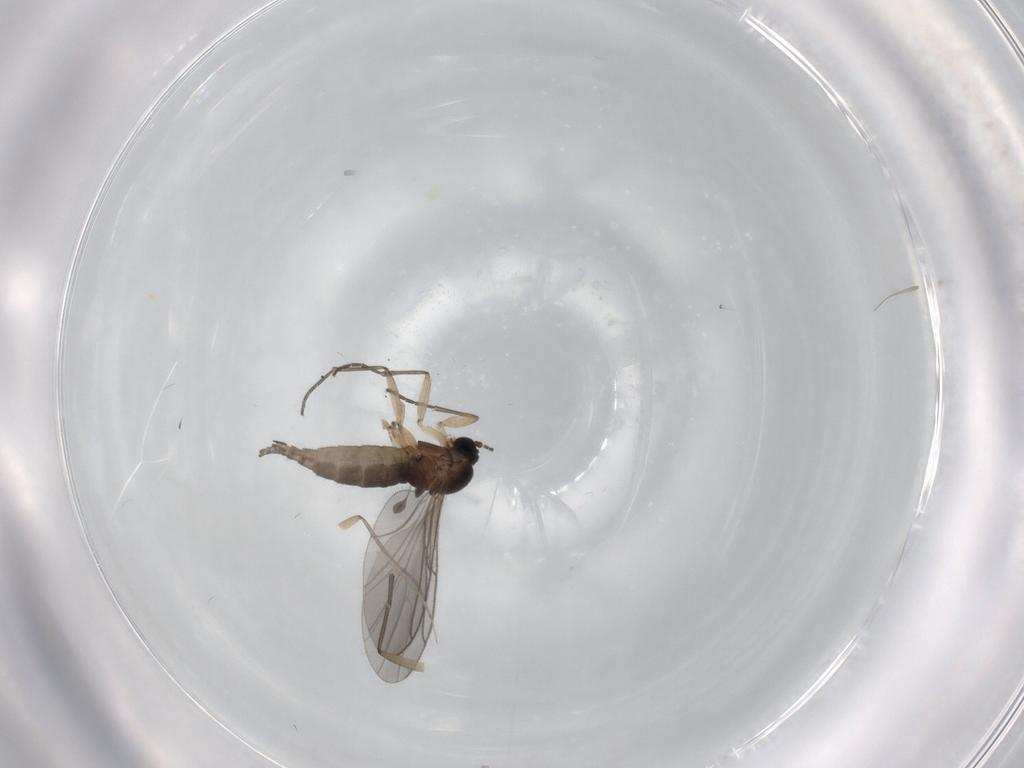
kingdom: Animalia
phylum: Arthropoda
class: Insecta
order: Diptera
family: Sciaridae
